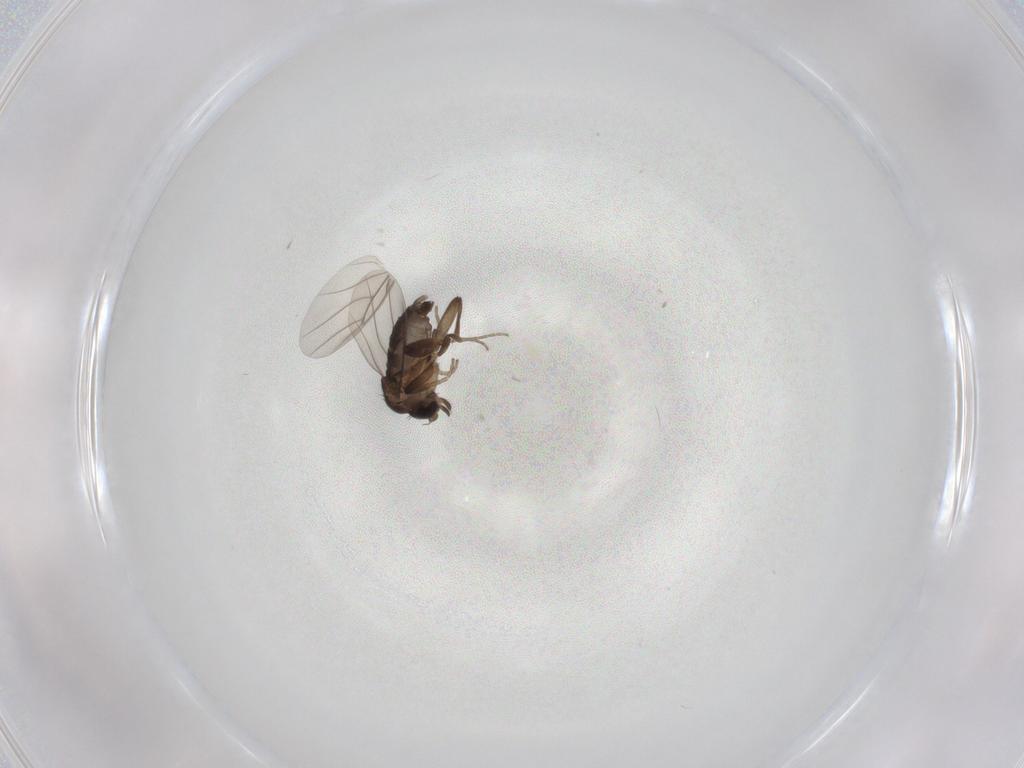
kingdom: Animalia
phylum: Arthropoda
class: Insecta
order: Diptera
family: Phoridae
